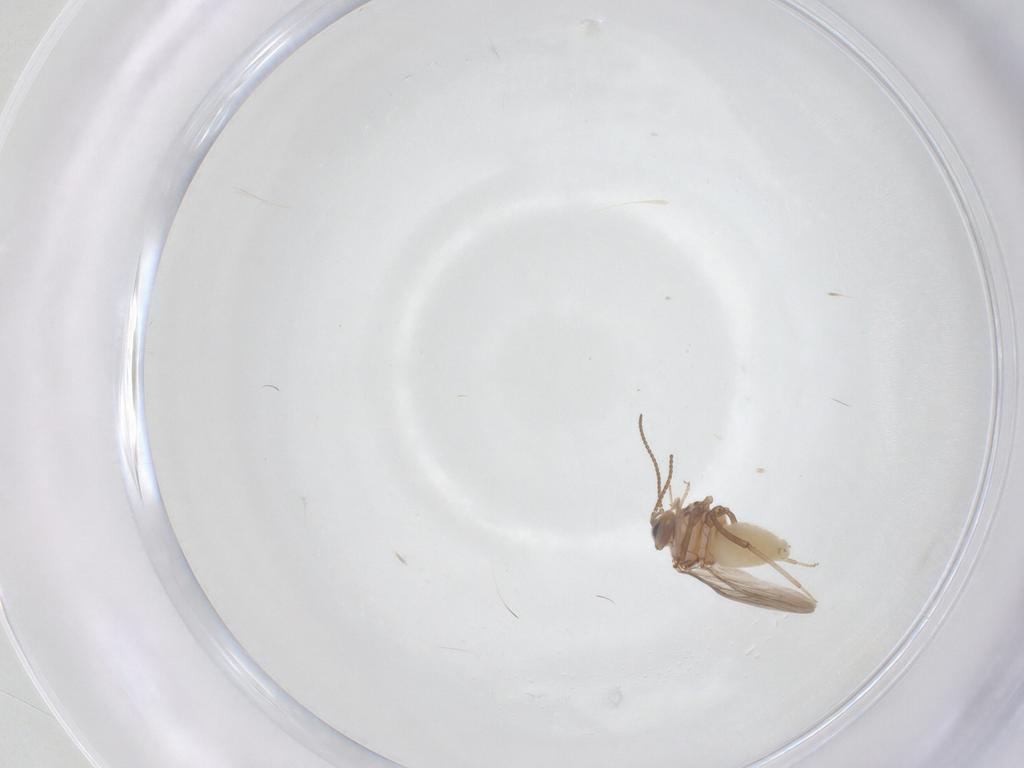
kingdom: Animalia
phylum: Arthropoda
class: Insecta
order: Neuroptera
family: Coniopterygidae
